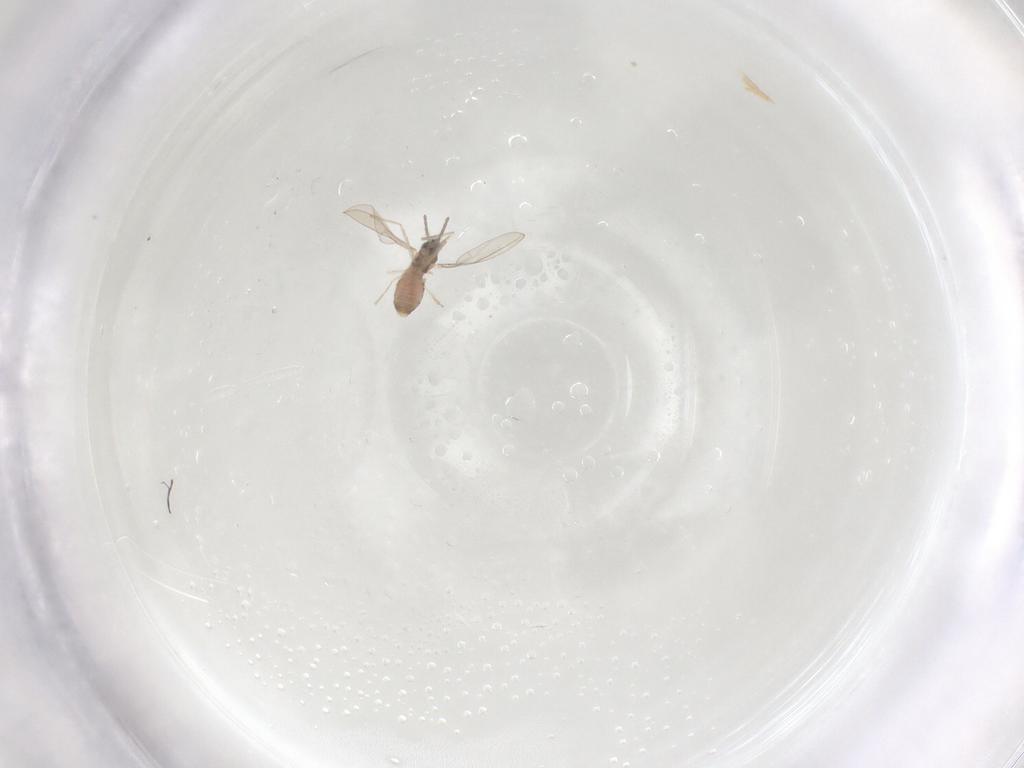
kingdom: Animalia
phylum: Arthropoda
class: Insecta
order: Diptera
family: Cecidomyiidae
